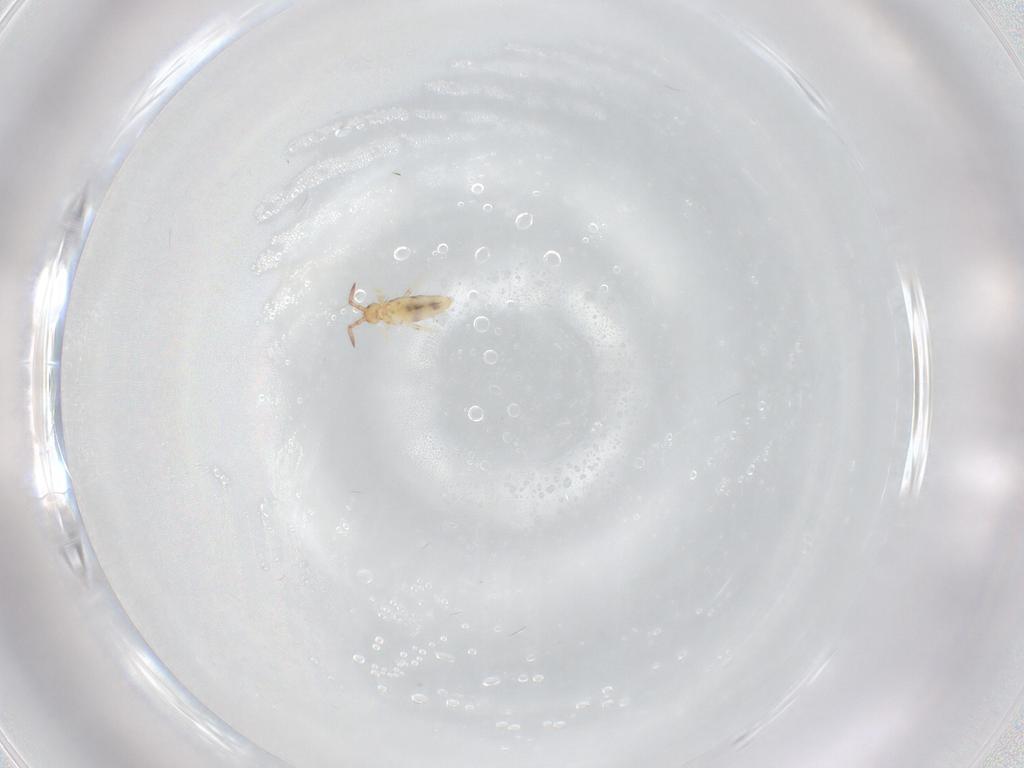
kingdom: Animalia
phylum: Arthropoda
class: Collembola
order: Poduromorpha
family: Hypogastruridae
